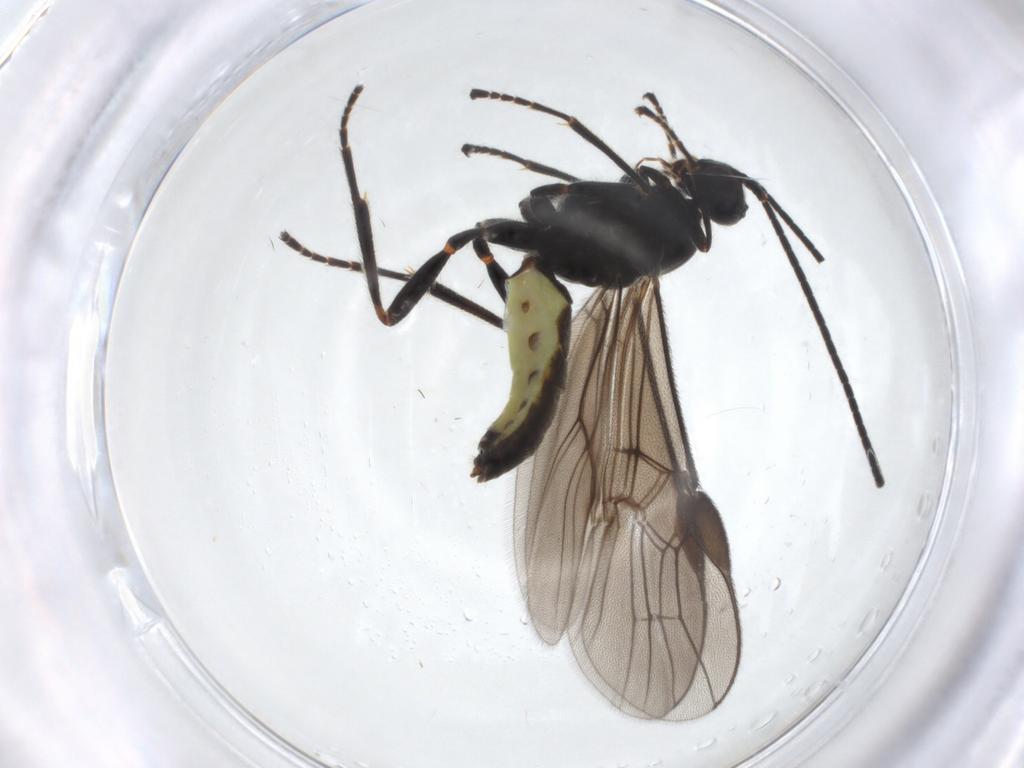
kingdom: Animalia
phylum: Arthropoda
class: Insecta
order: Hymenoptera
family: Braconidae
